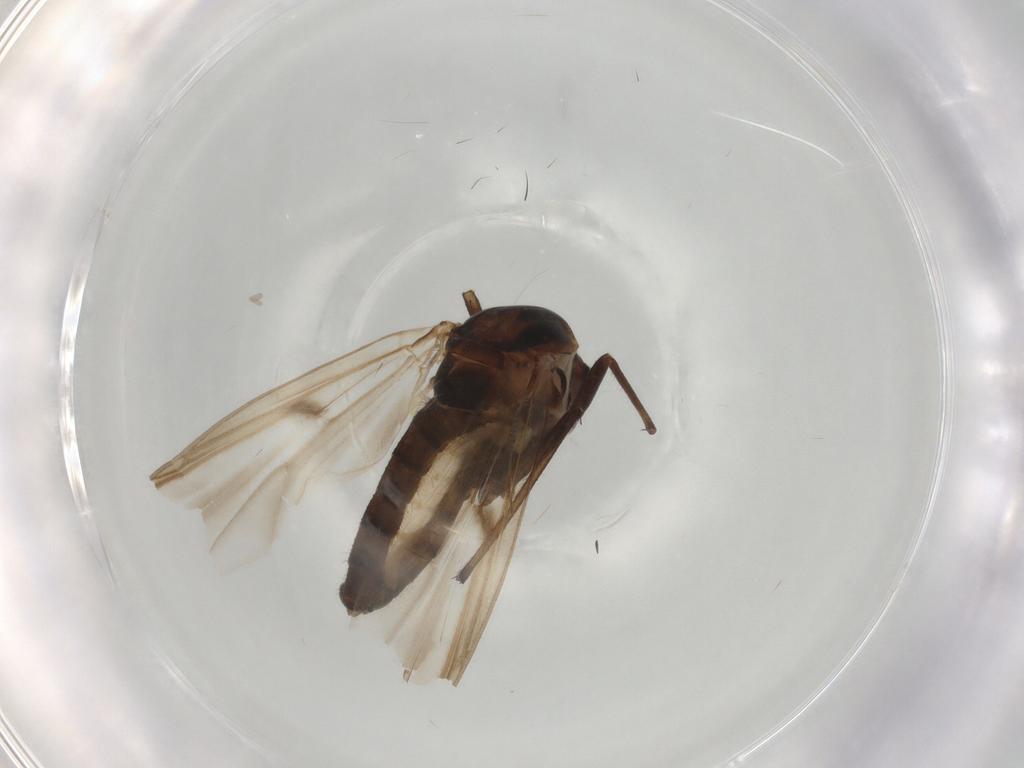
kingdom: Animalia
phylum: Arthropoda
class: Insecta
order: Diptera
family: Chironomidae
